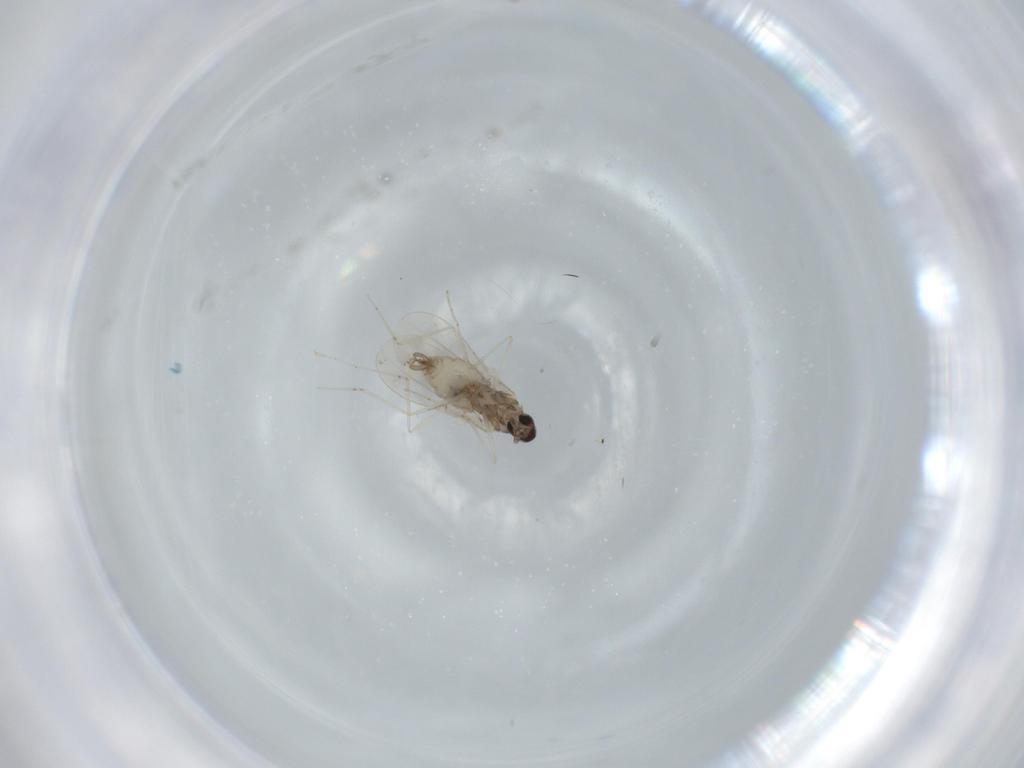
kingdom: Animalia
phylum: Arthropoda
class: Insecta
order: Diptera
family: Cecidomyiidae
